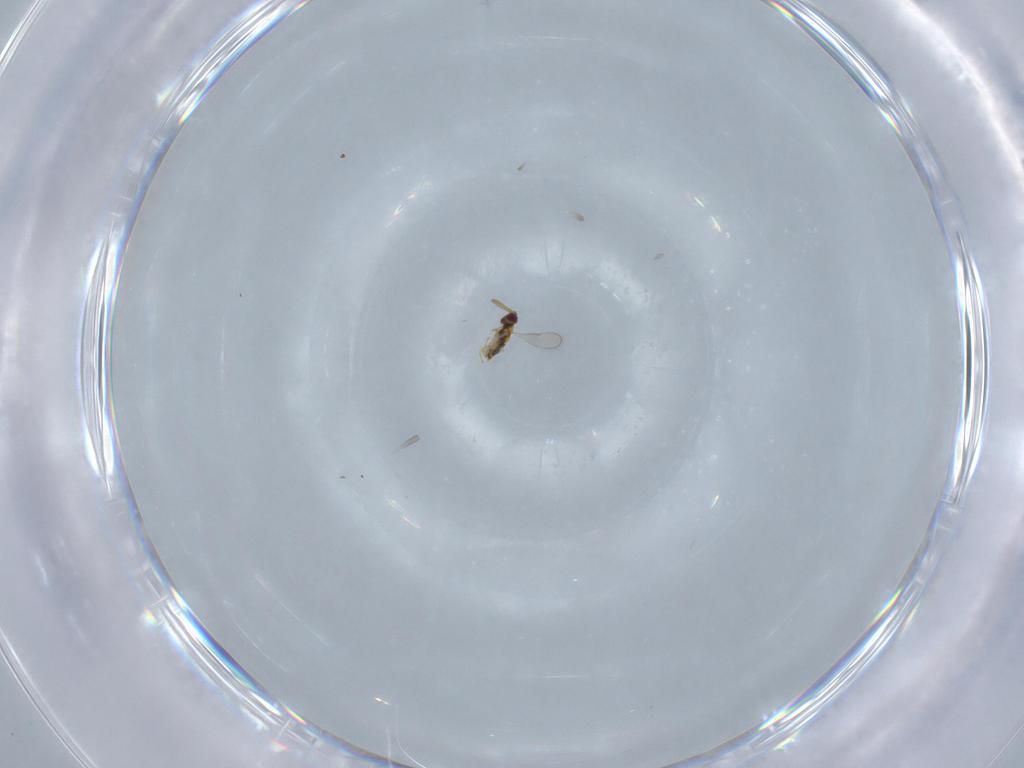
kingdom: Animalia
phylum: Arthropoda
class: Insecta
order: Hymenoptera
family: Aphelinidae
